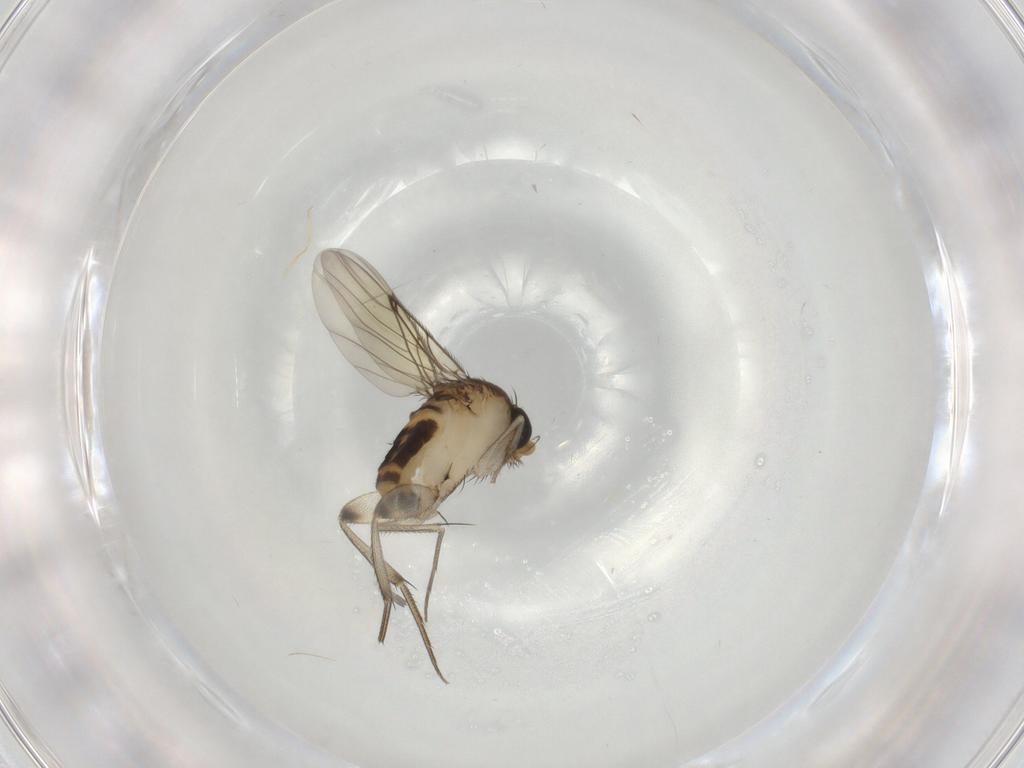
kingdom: Animalia
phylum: Arthropoda
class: Insecta
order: Diptera
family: Phoridae
